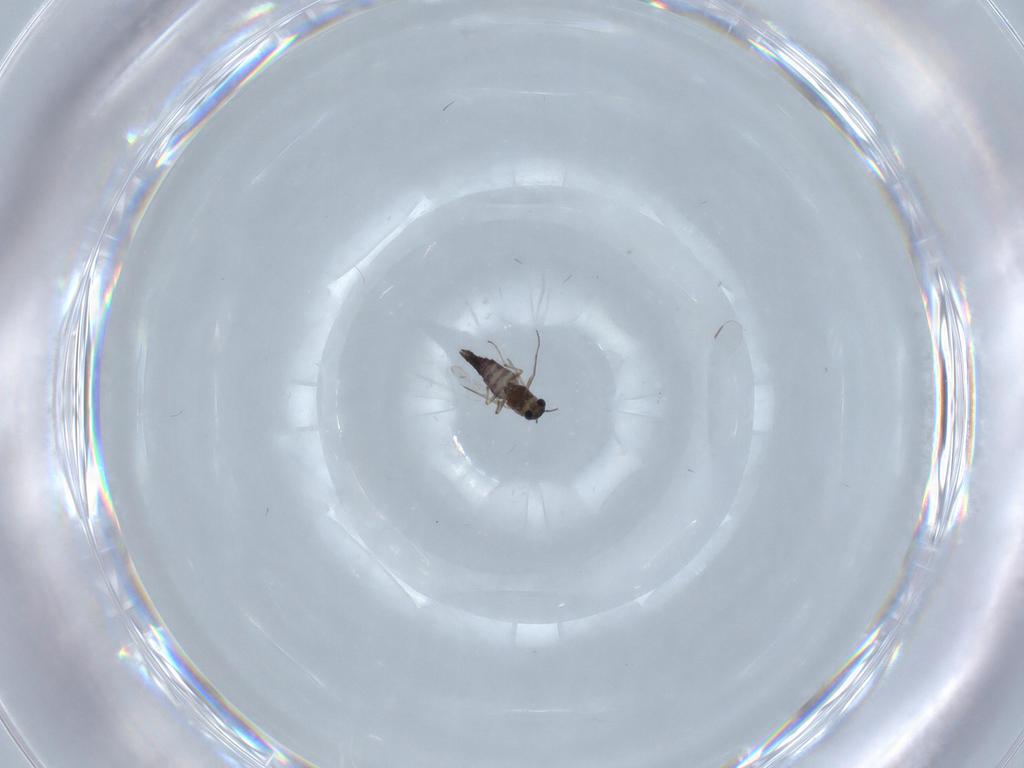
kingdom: Animalia
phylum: Arthropoda
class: Insecta
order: Diptera
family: Chironomidae
